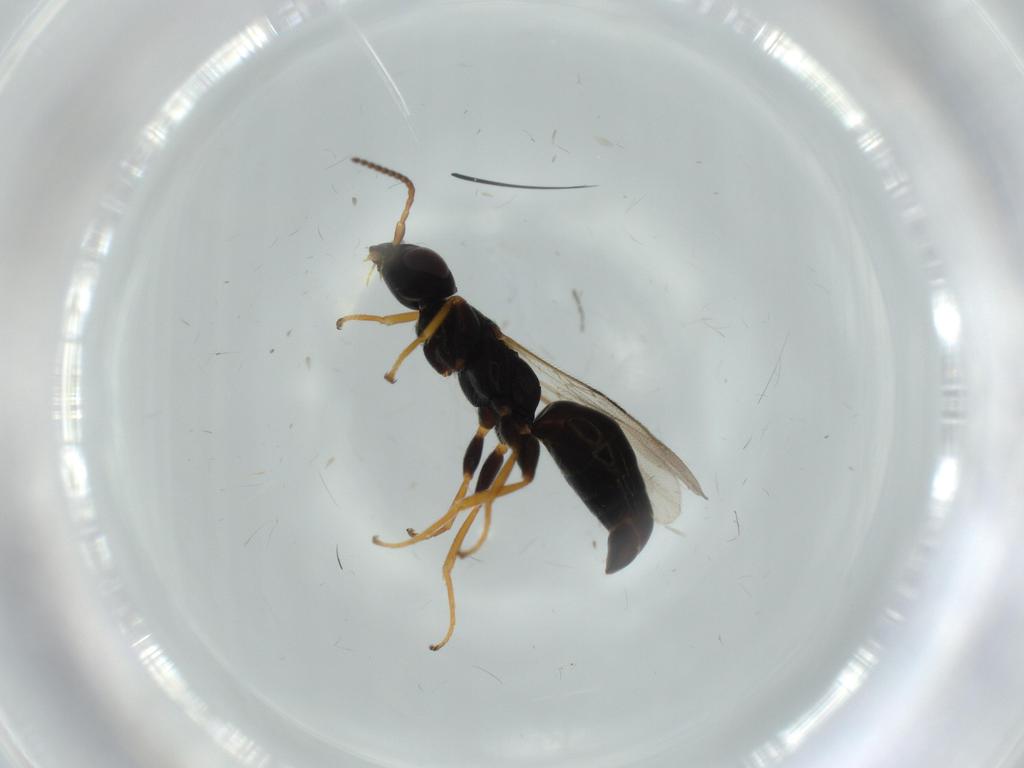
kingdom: Animalia
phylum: Arthropoda
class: Insecta
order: Hymenoptera
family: Bethylidae
